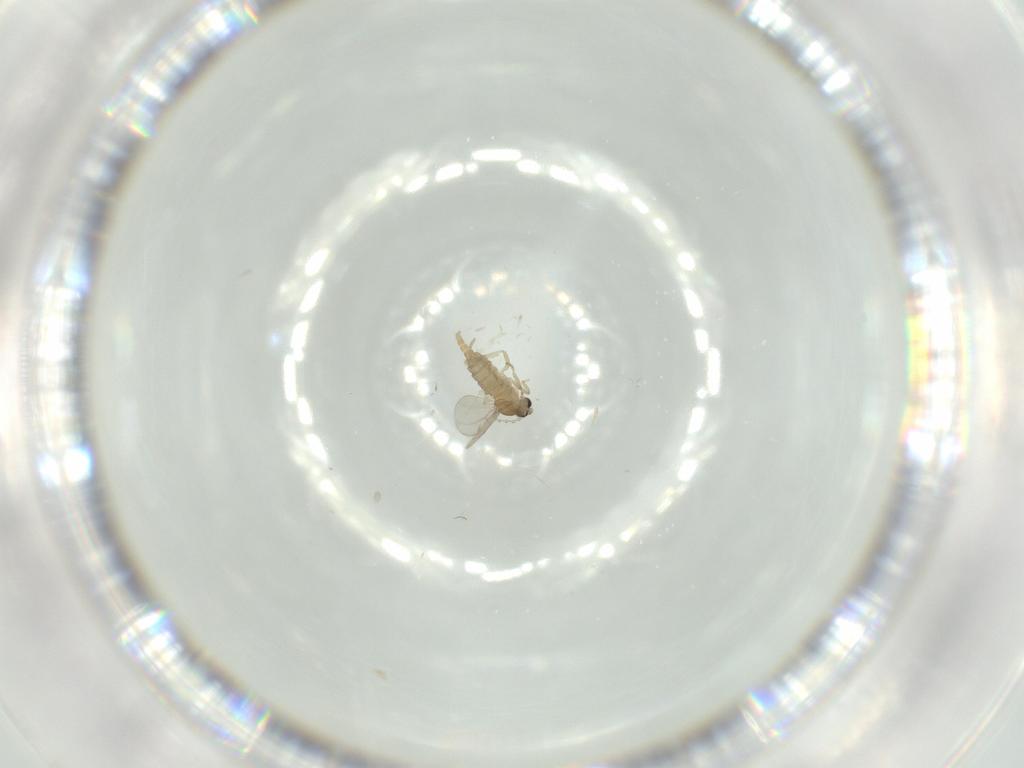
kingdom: Animalia
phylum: Arthropoda
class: Insecta
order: Diptera
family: Cecidomyiidae
